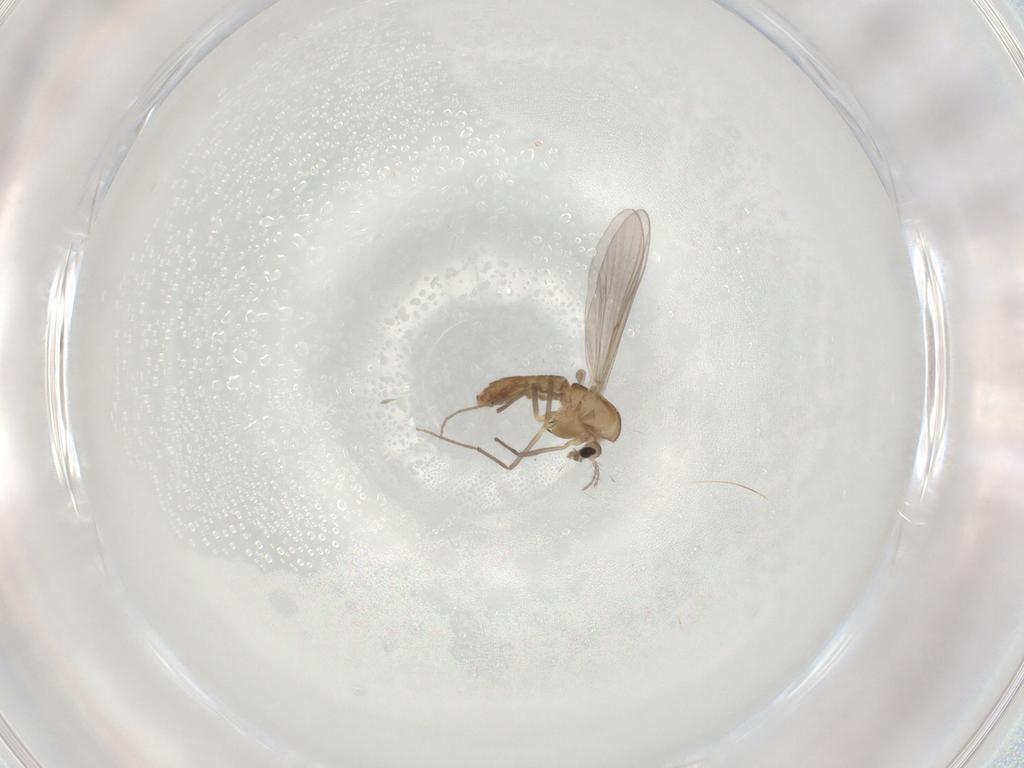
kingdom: Animalia
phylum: Arthropoda
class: Insecta
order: Diptera
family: Chironomidae
